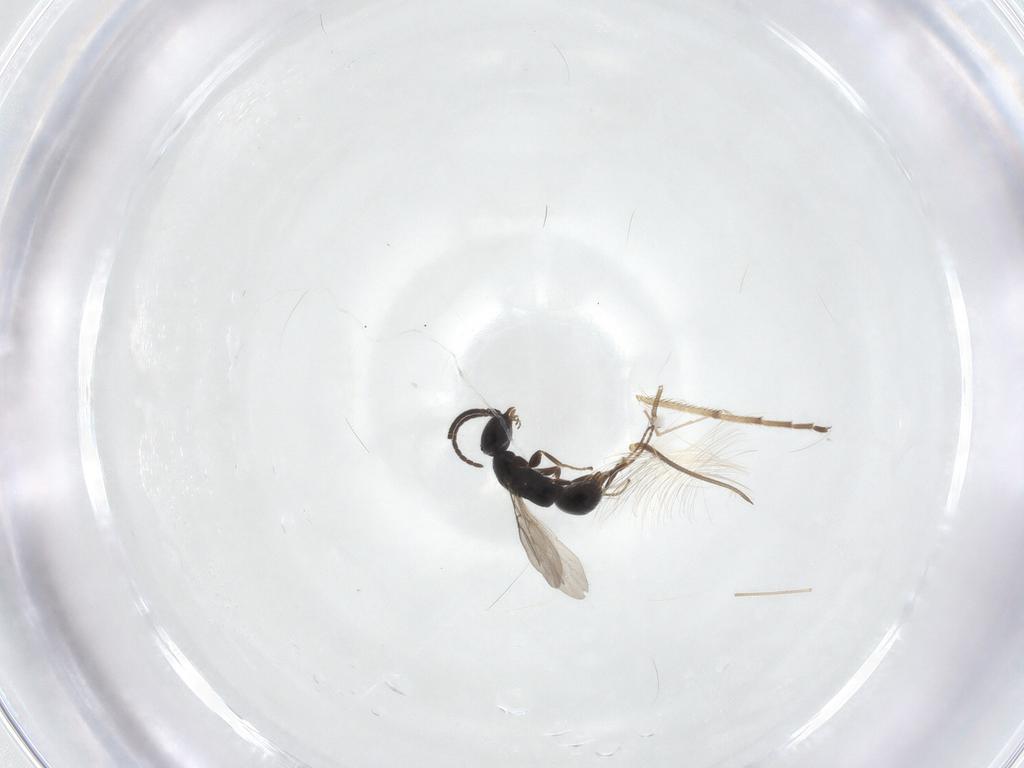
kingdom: Animalia
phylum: Arthropoda
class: Insecta
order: Hymenoptera
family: Bethylidae
